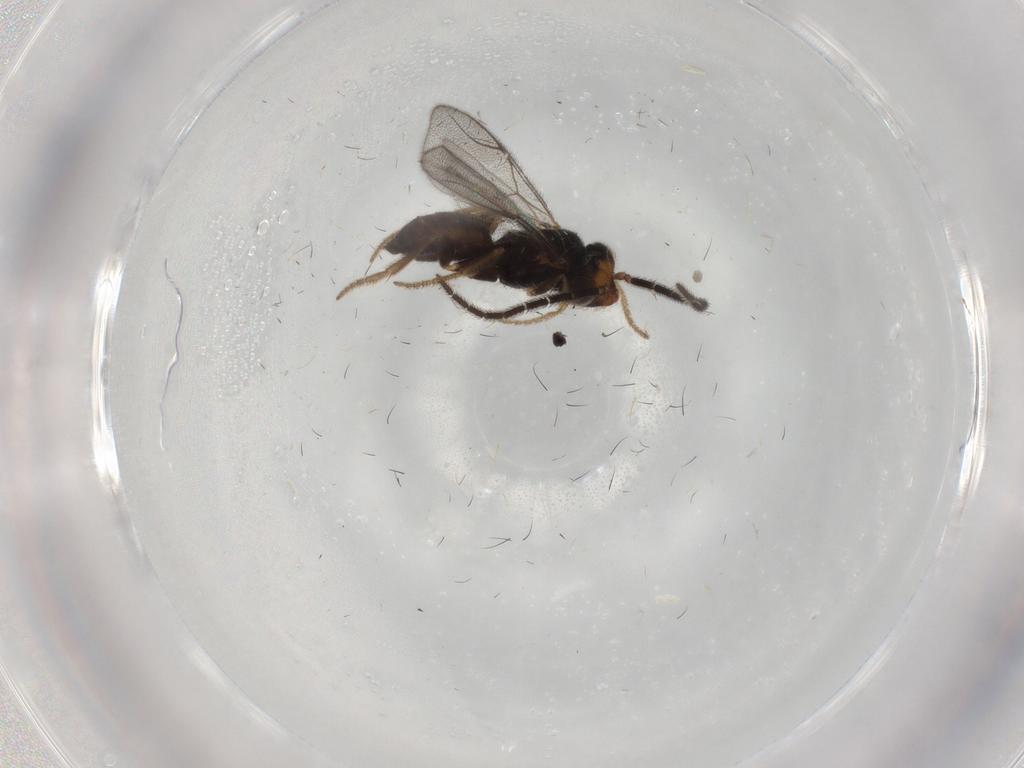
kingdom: Animalia
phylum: Arthropoda
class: Insecta
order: Hymenoptera
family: Dryinidae
